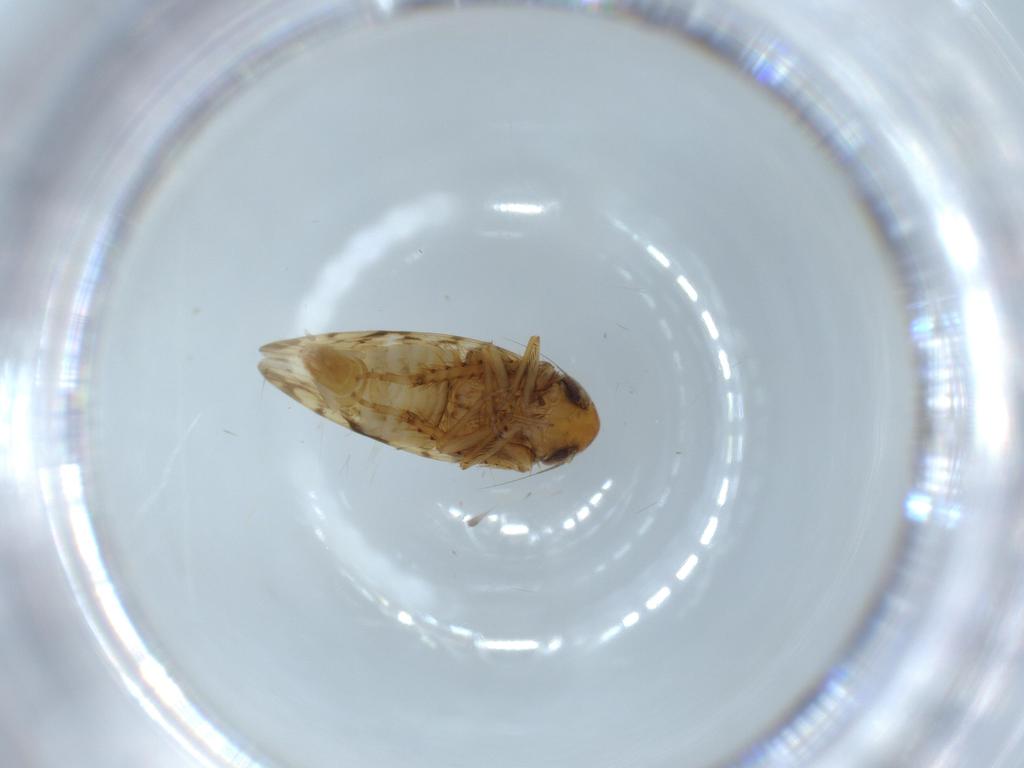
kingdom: Animalia
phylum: Arthropoda
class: Insecta
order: Hemiptera
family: Cicadellidae
